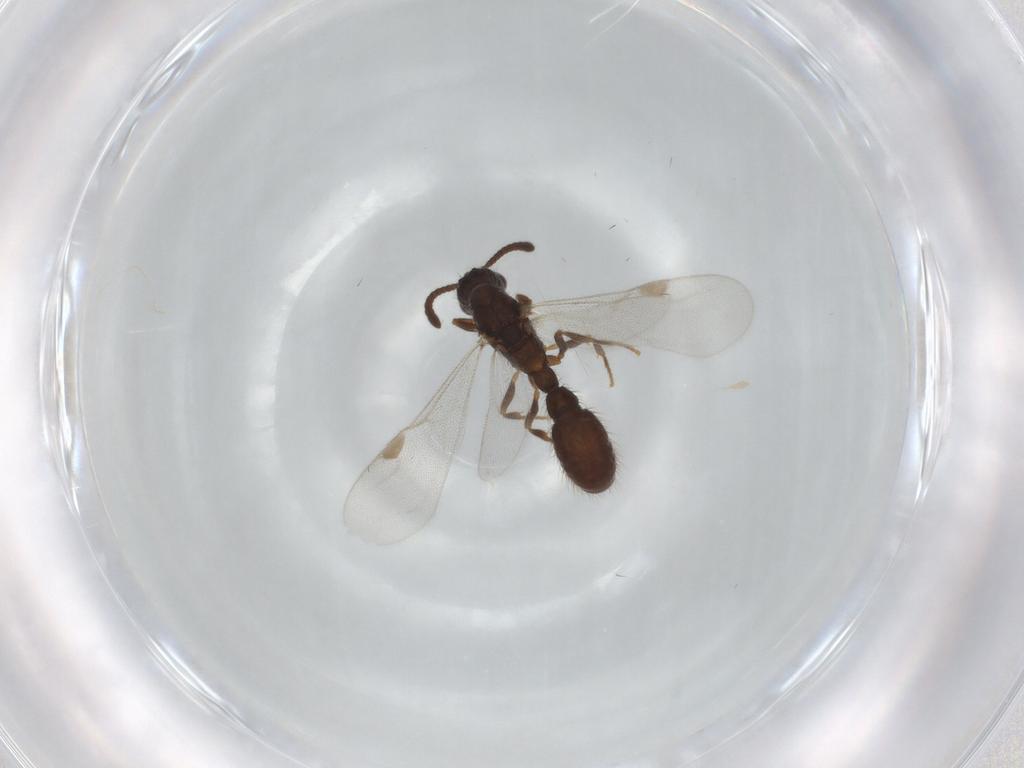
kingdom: Animalia
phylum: Arthropoda
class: Insecta
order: Hymenoptera
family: Formicidae
